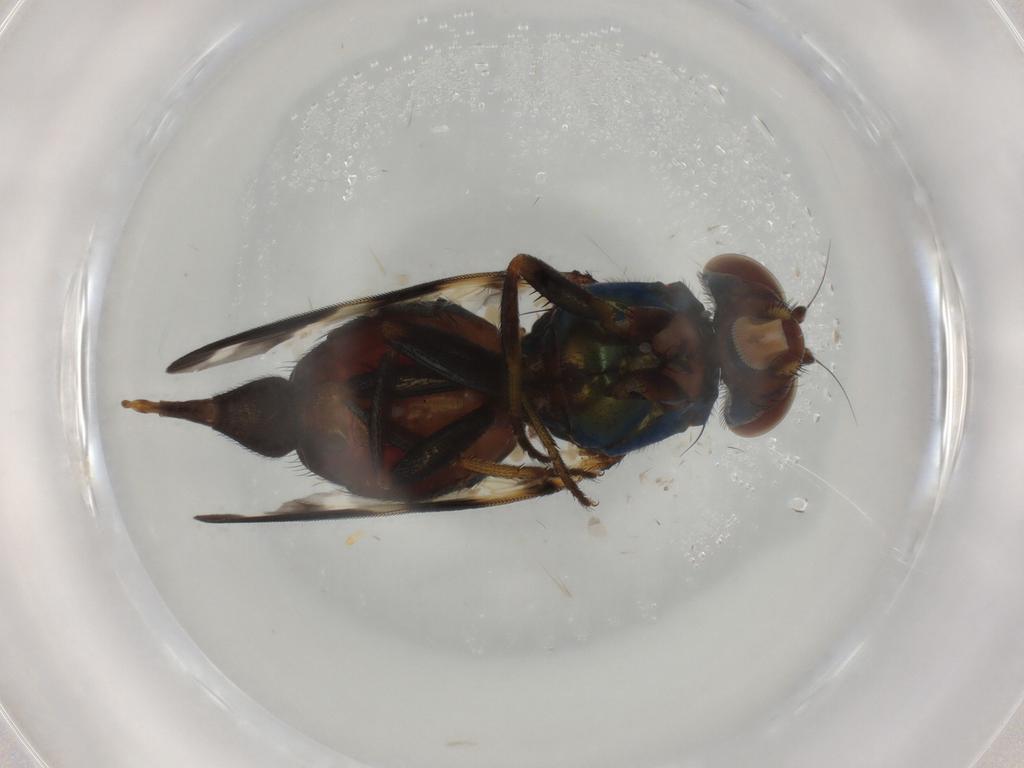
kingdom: Animalia
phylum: Arthropoda
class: Insecta
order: Diptera
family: Ulidiidae
